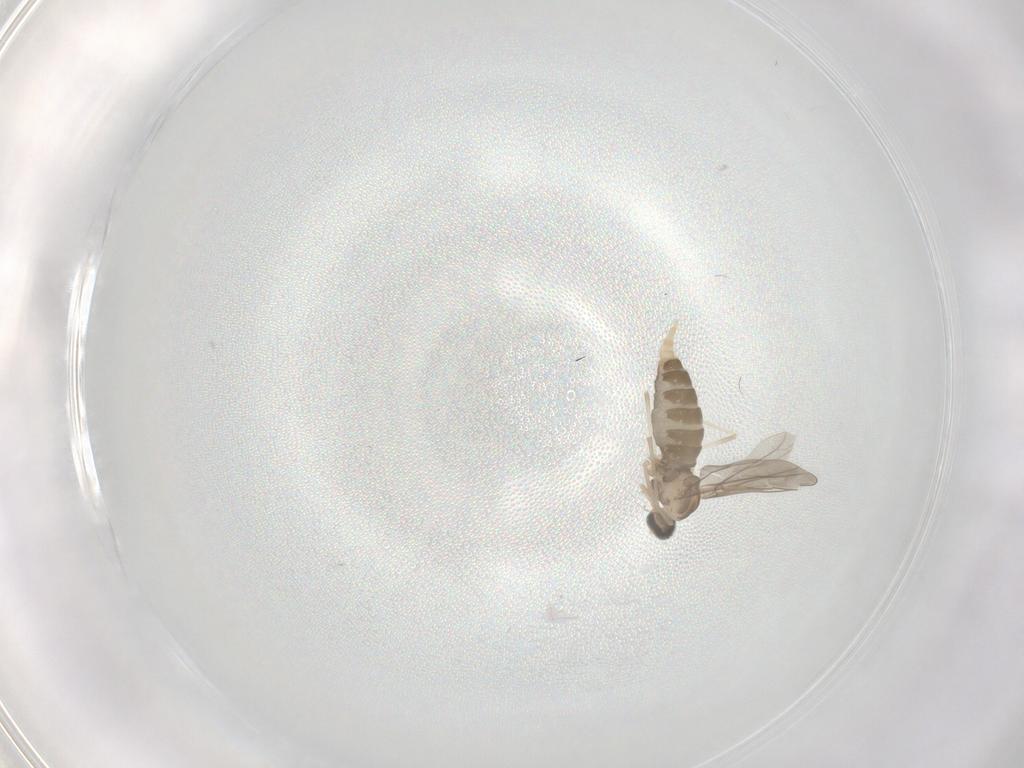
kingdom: Animalia
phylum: Arthropoda
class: Insecta
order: Diptera
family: Cecidomyiidae
